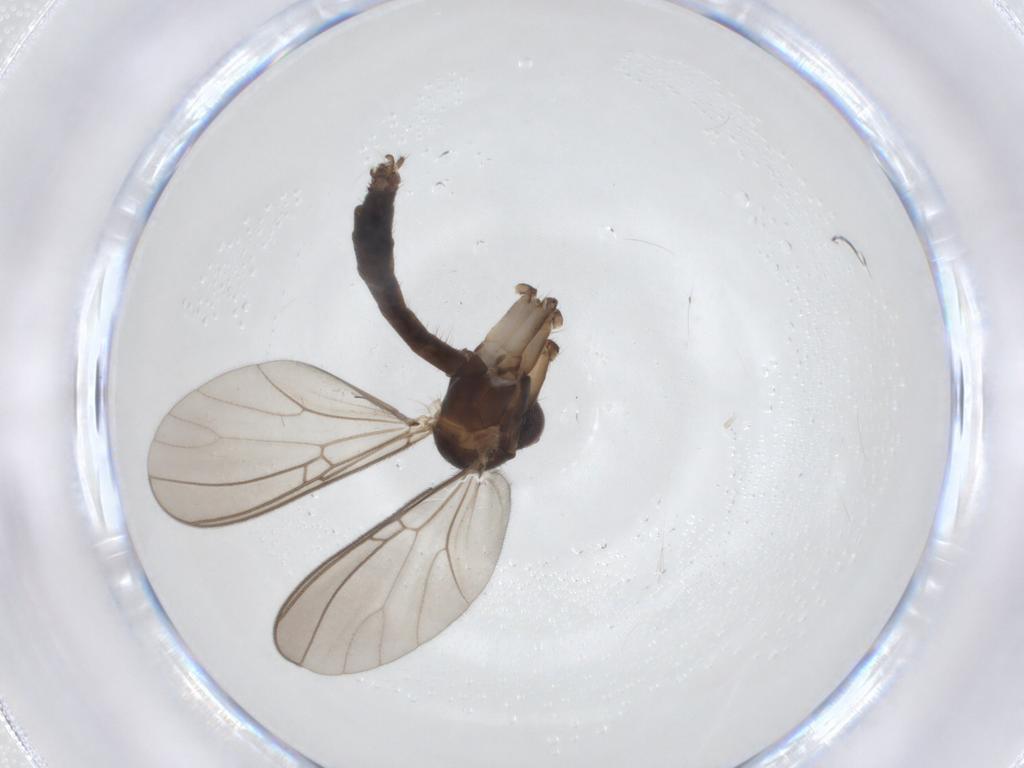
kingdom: Animalia
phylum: Arthropoda
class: Insecta
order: Diptera
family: Mycetophilidae
